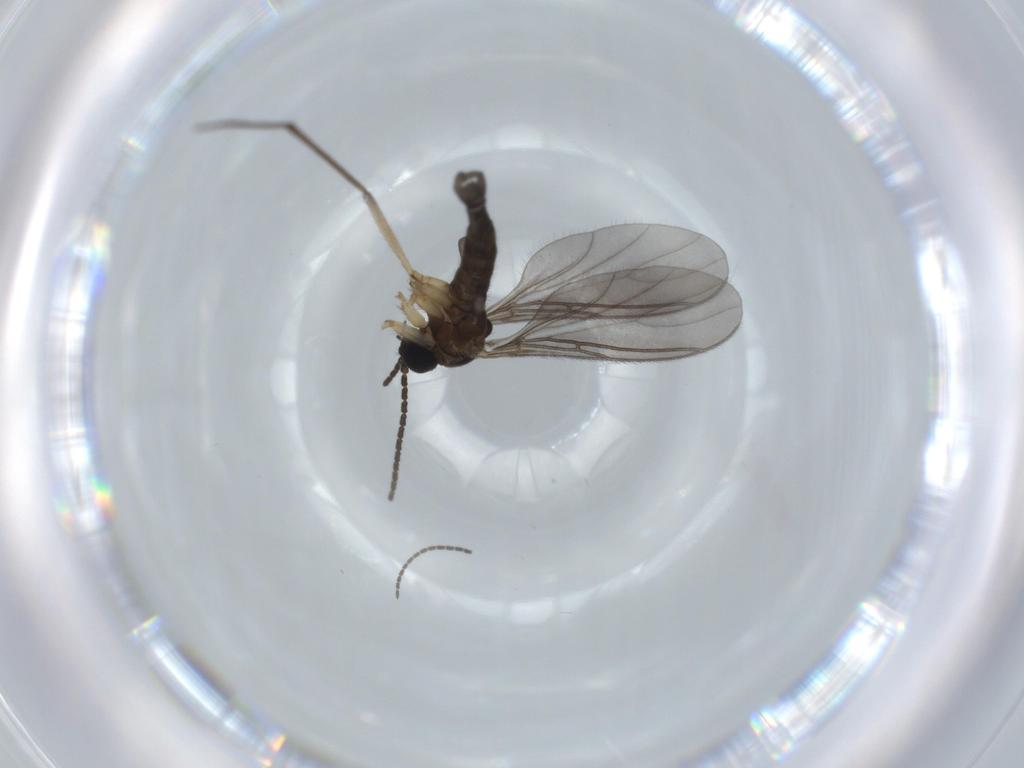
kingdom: Animalia
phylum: Arthropoda
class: Insecta
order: Diptera
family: Sciaridae
